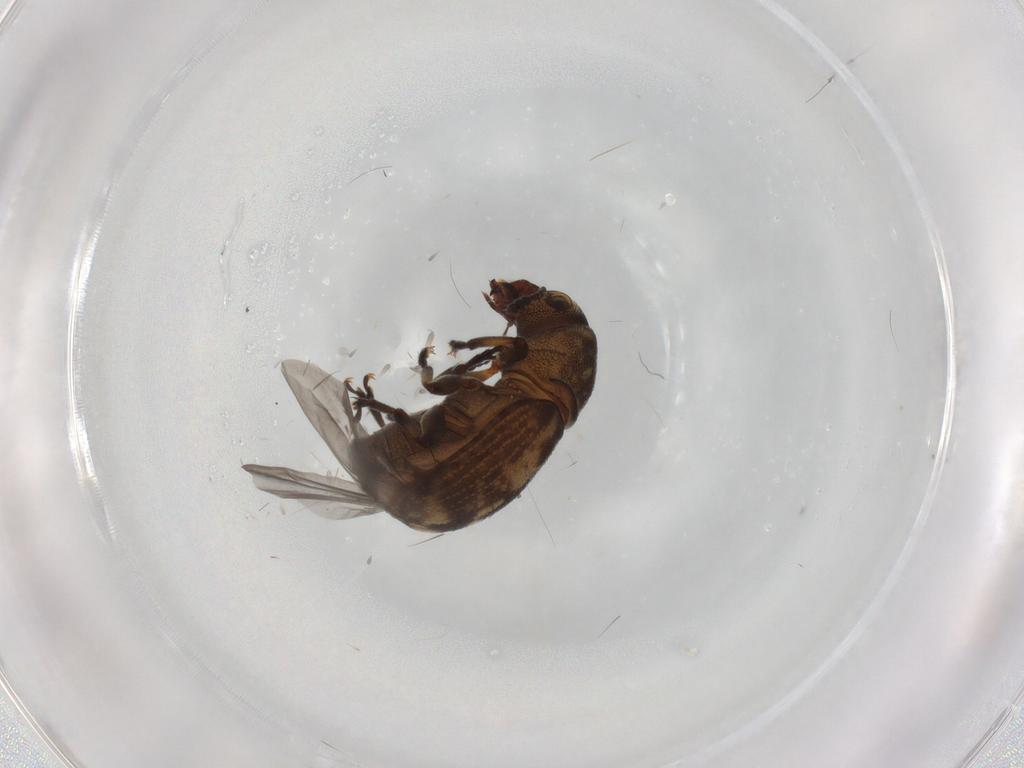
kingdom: Animalia
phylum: Arthropoda
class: Insecta
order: Coleoptera
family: Anthribidae
